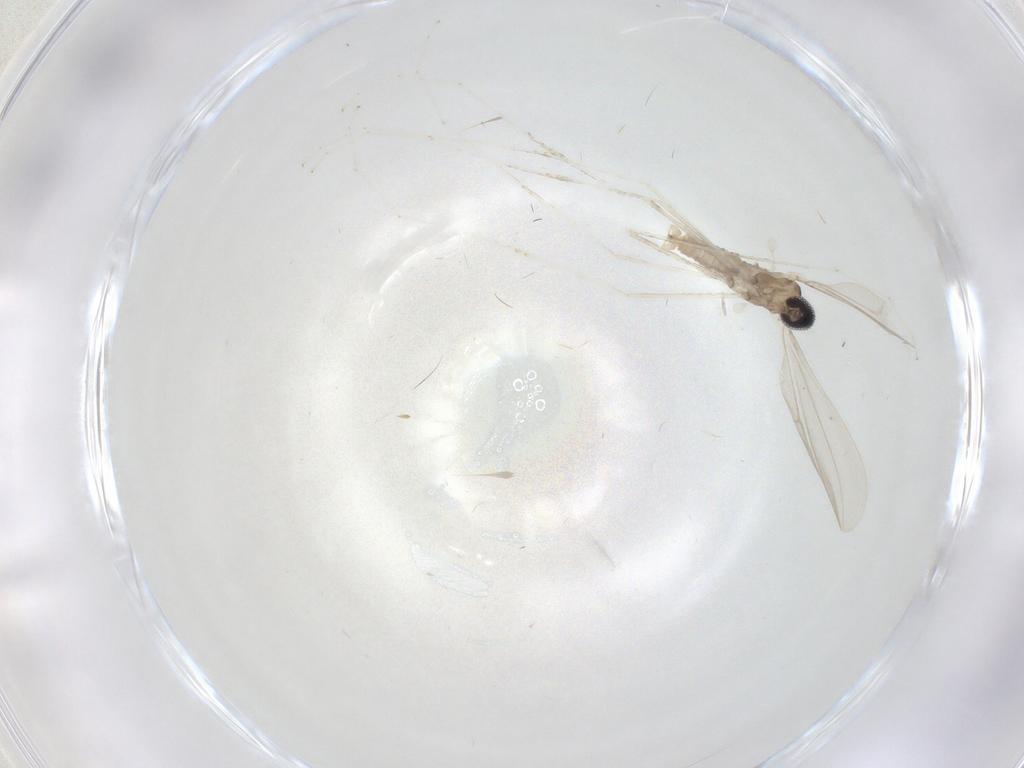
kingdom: Animalia
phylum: Arthropoda
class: Insecta
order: Diptera
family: Cecidomyiidae
